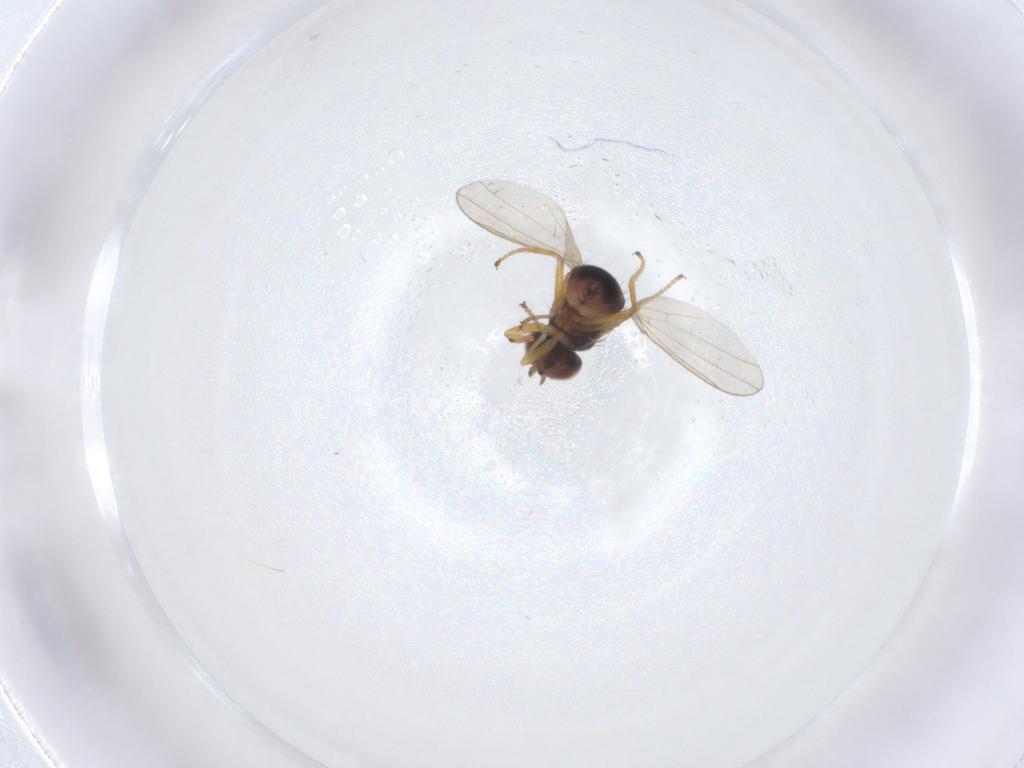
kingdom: Animalia
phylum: Arthropoda
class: Insecta
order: Diptera
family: Ephydridae
